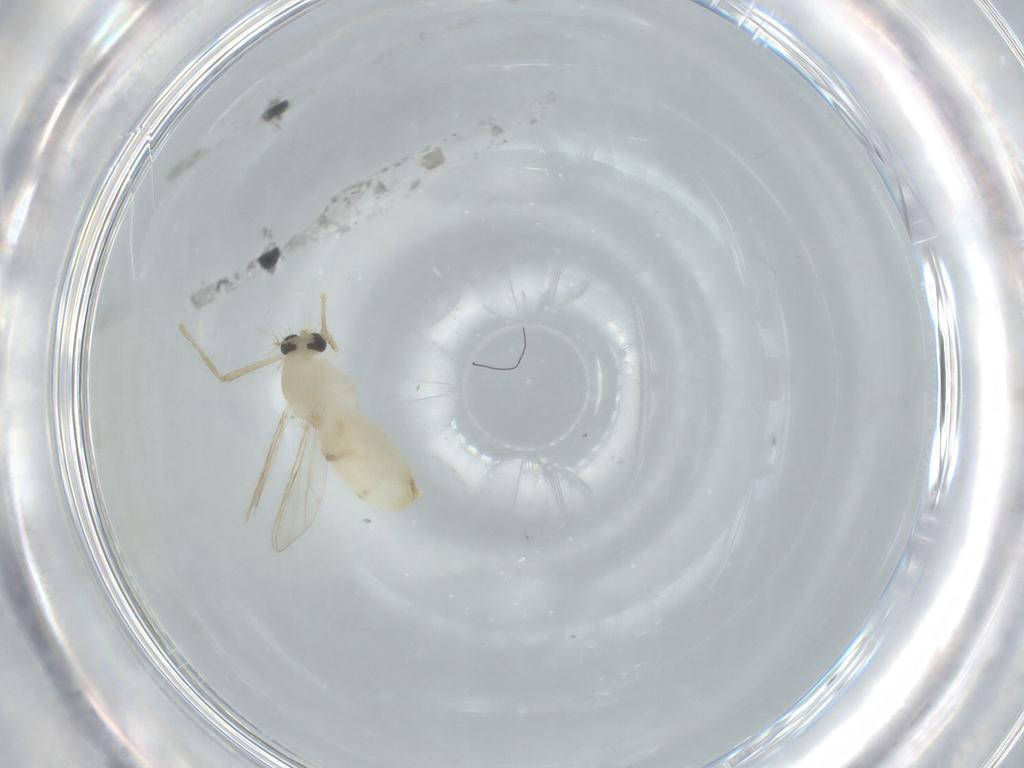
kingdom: Animalia
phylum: Arthropoda
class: Insecta
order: Diptera
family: Chironomidae
